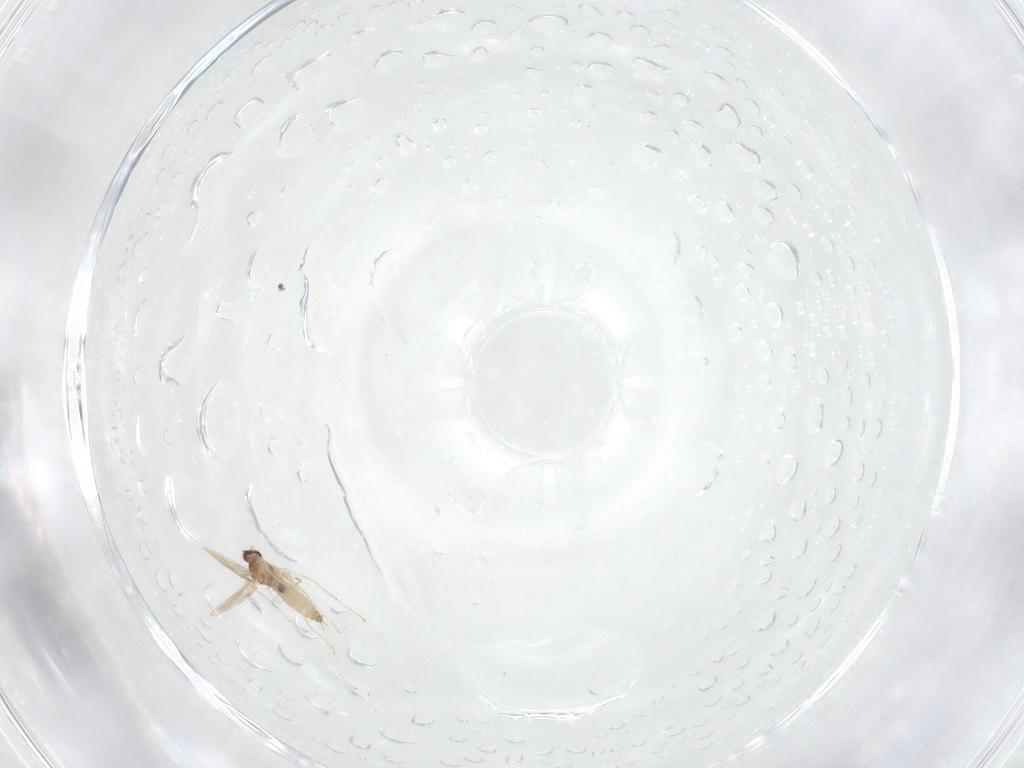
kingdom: Animalia
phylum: Arthropoda
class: Insecta
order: Diptera
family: Cecidomyiidae
